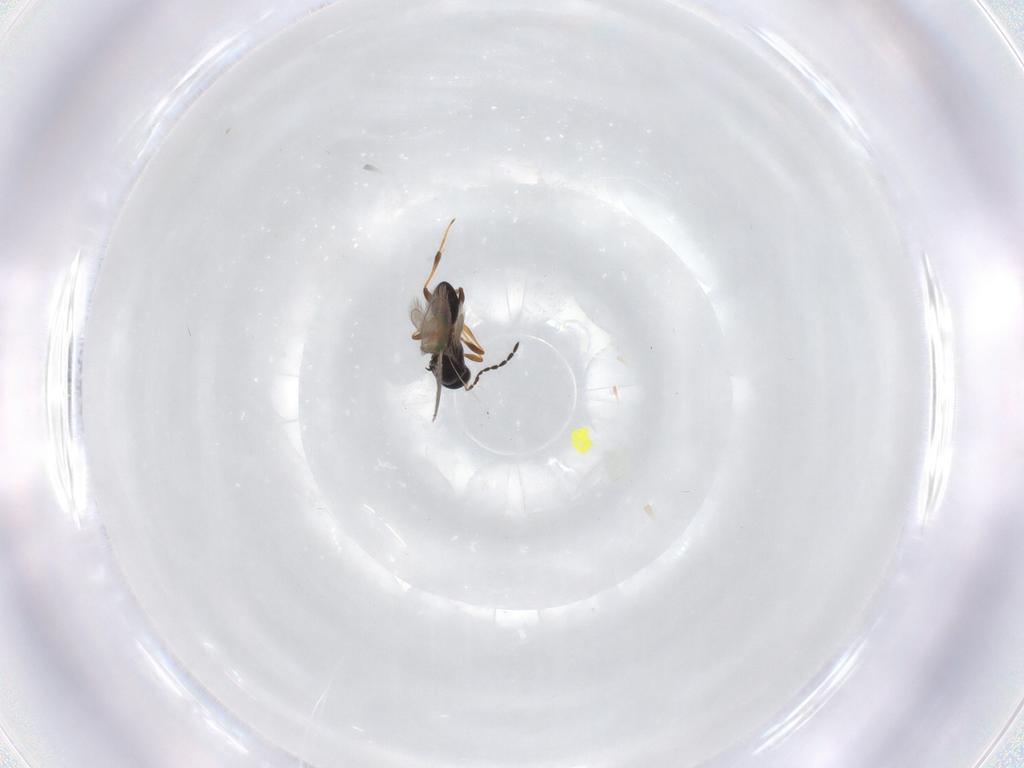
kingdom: Animalia
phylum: Arthropoda
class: Insecta
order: Hymenoptera
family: Platygastridae
